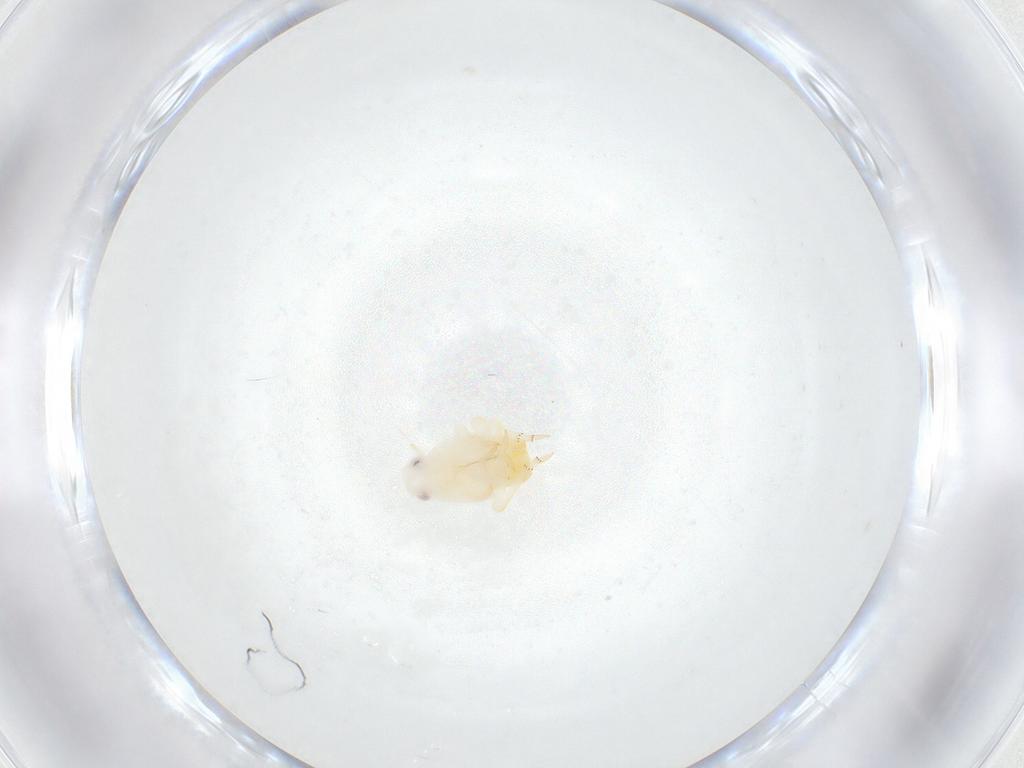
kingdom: Animalia
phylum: Arthropoda
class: Insecta
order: Hemiptera
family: Flatidae
